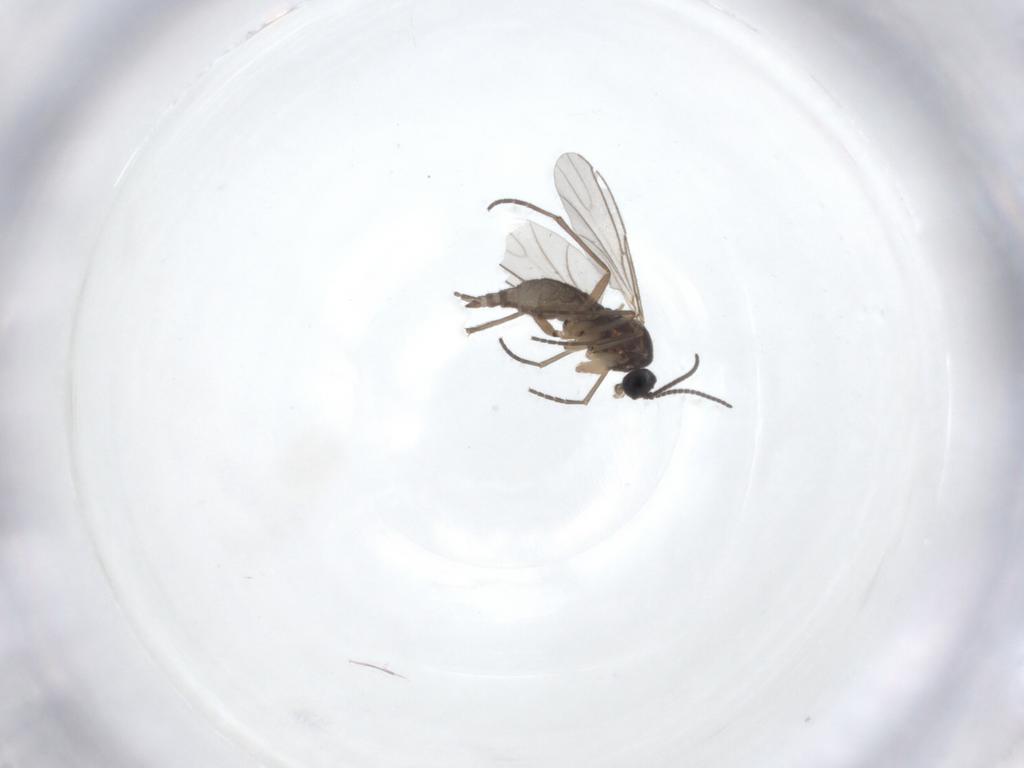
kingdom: Animalia
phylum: Arthropoda
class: Insecta
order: Diptera
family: Sciaridae
